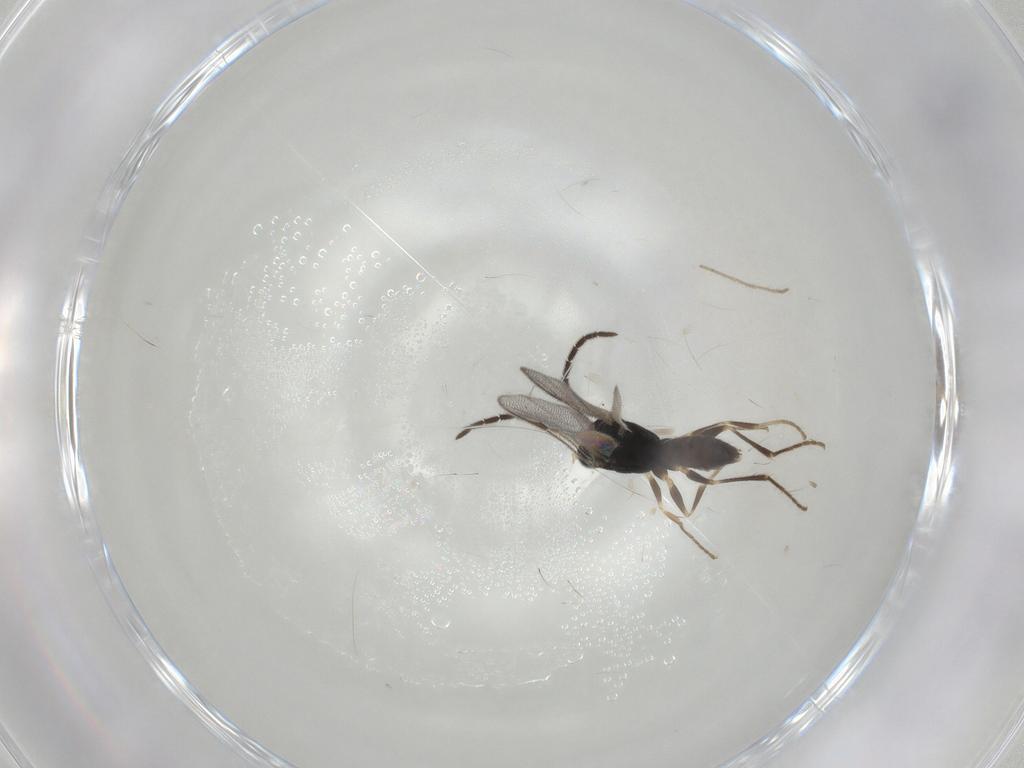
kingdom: Animalia
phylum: Arthropoda
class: Insecta
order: Hymenoptera
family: Dryinidae
